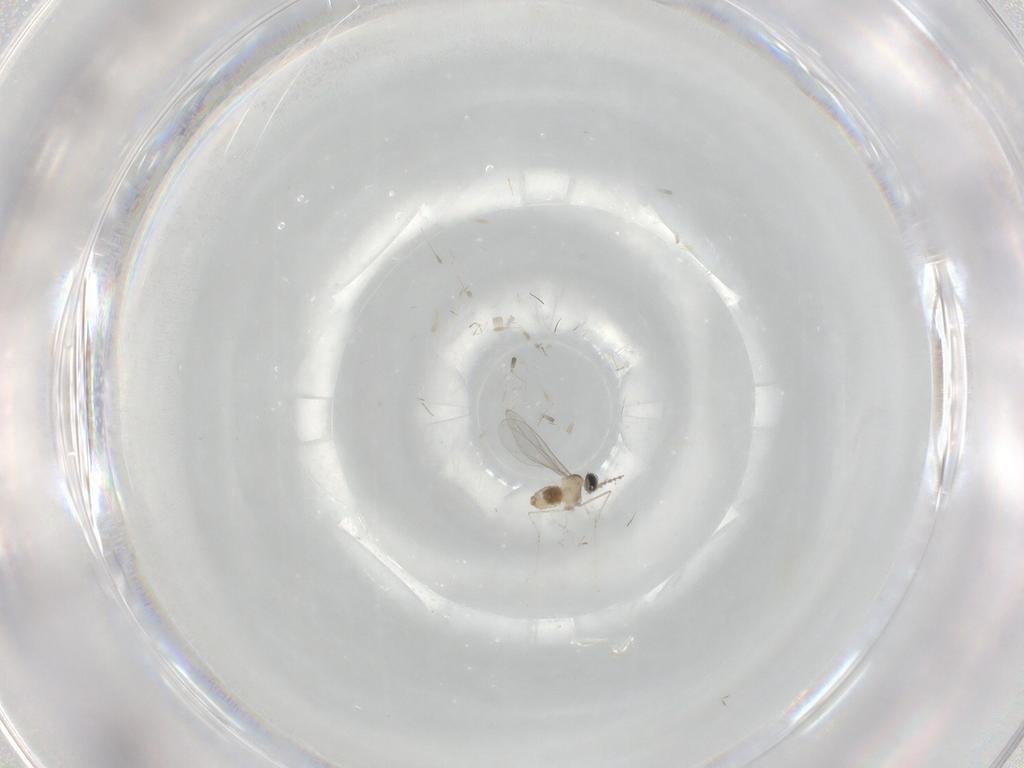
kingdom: Animalia
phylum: Arthropoda
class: Insecta
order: Diptera
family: Cecidomyiidae
